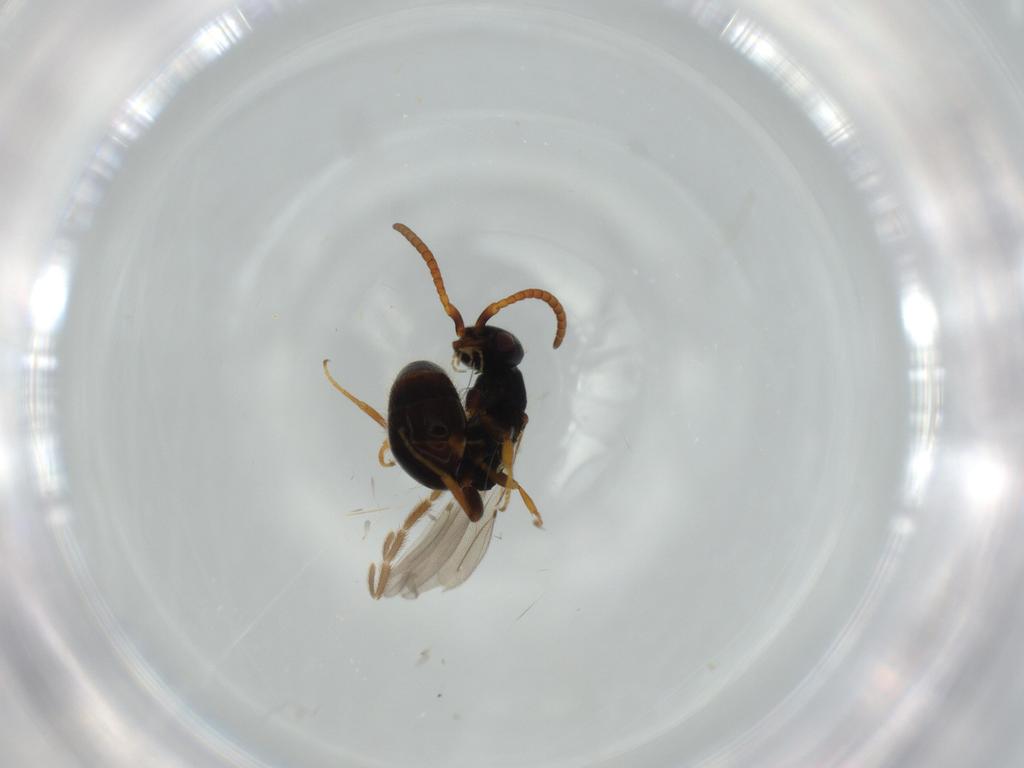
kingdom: Animalia
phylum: Arthropoda
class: Insecta
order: Hymenoptera
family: Bethylidae
